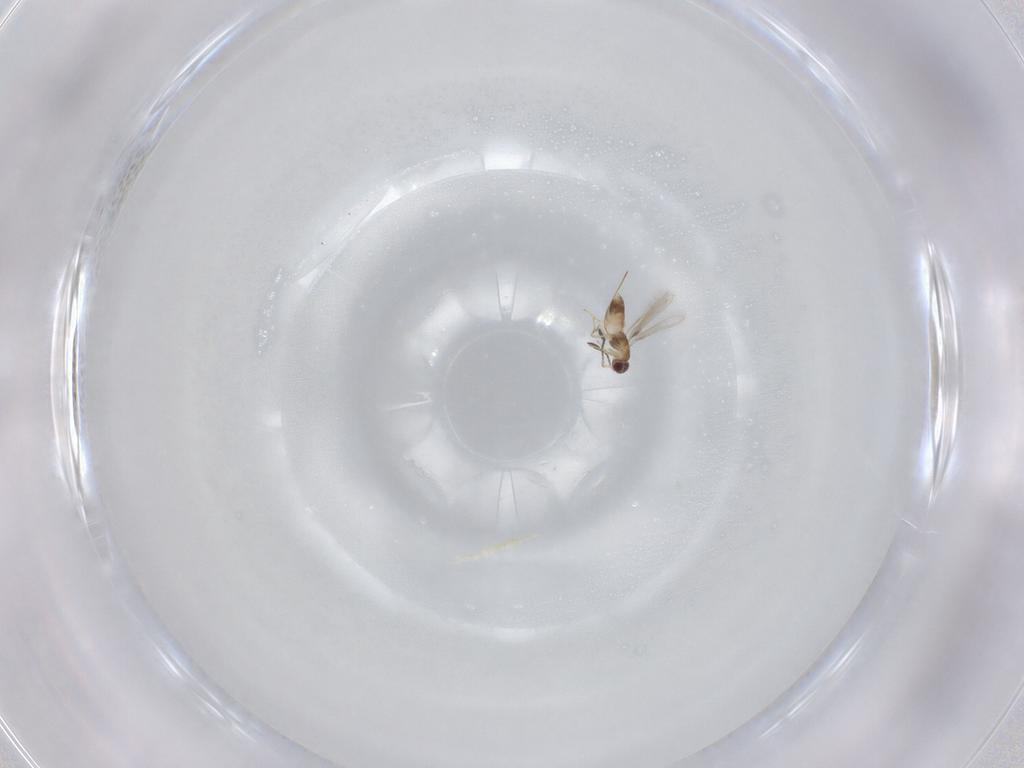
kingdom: Animalia
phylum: Arthropoda
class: Insecta
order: Hymenoptera
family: Mymaridae
